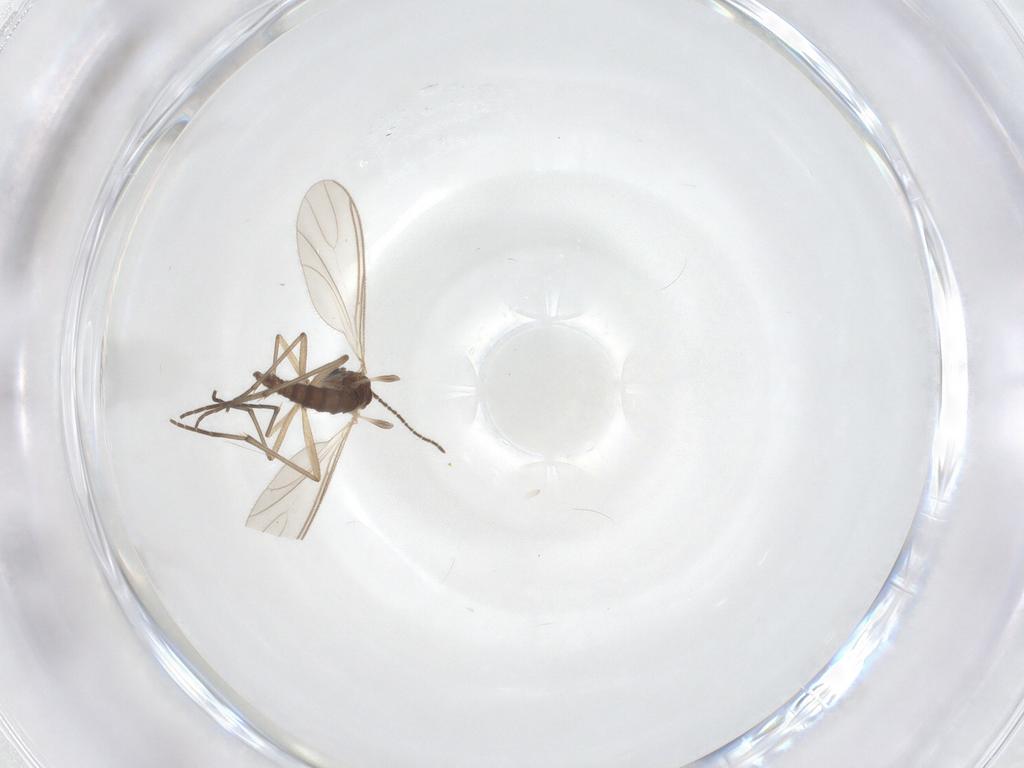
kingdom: Animalia
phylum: Arthropoda
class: Insecta
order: Diptera
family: Sciaridae
